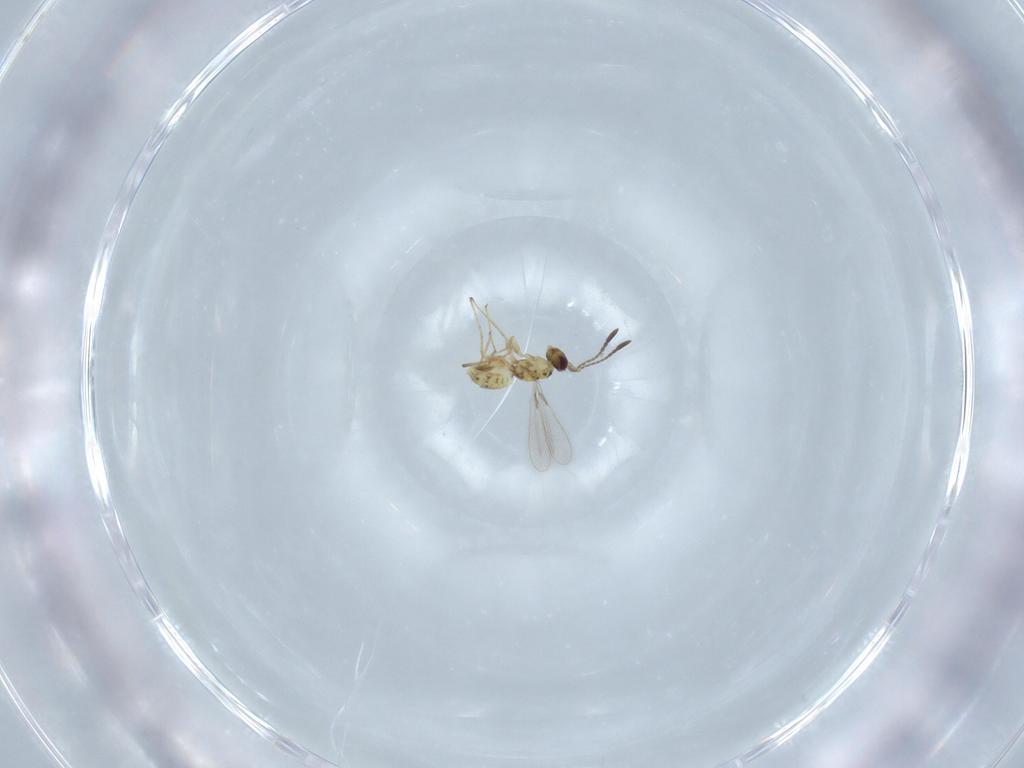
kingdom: Animalia
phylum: Arthropoda
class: Insecta
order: Hymenoptera
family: Mymaridae
